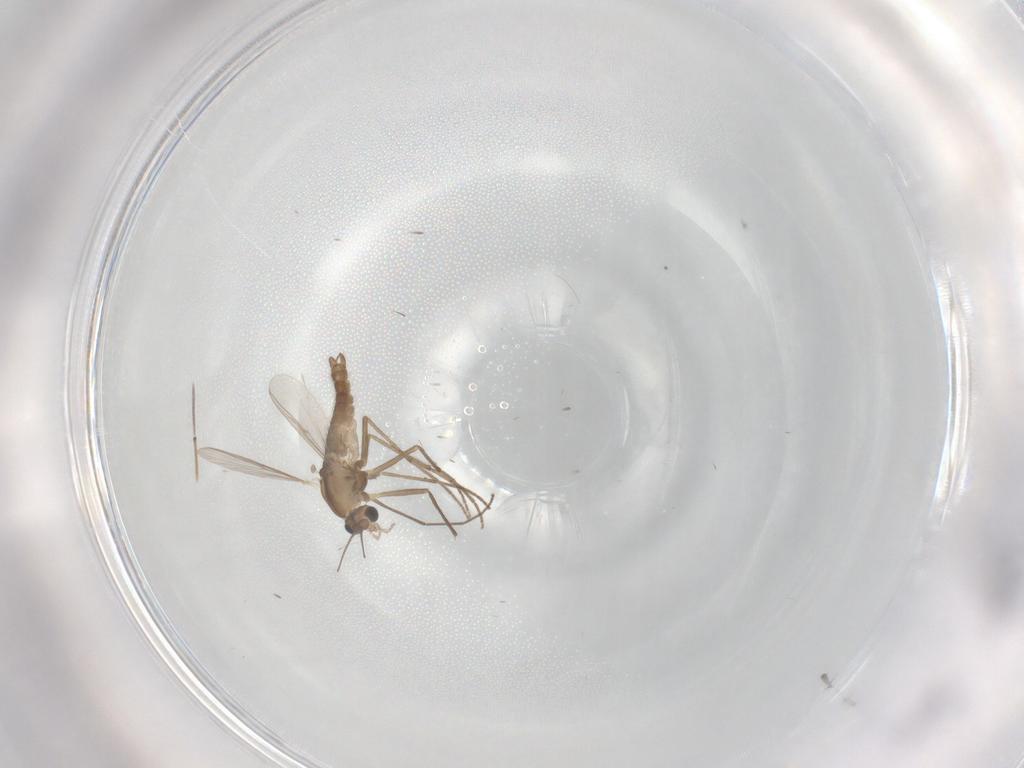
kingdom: Animalia
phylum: Arthropoda
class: Insecta
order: Diptera
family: Chironomidae
